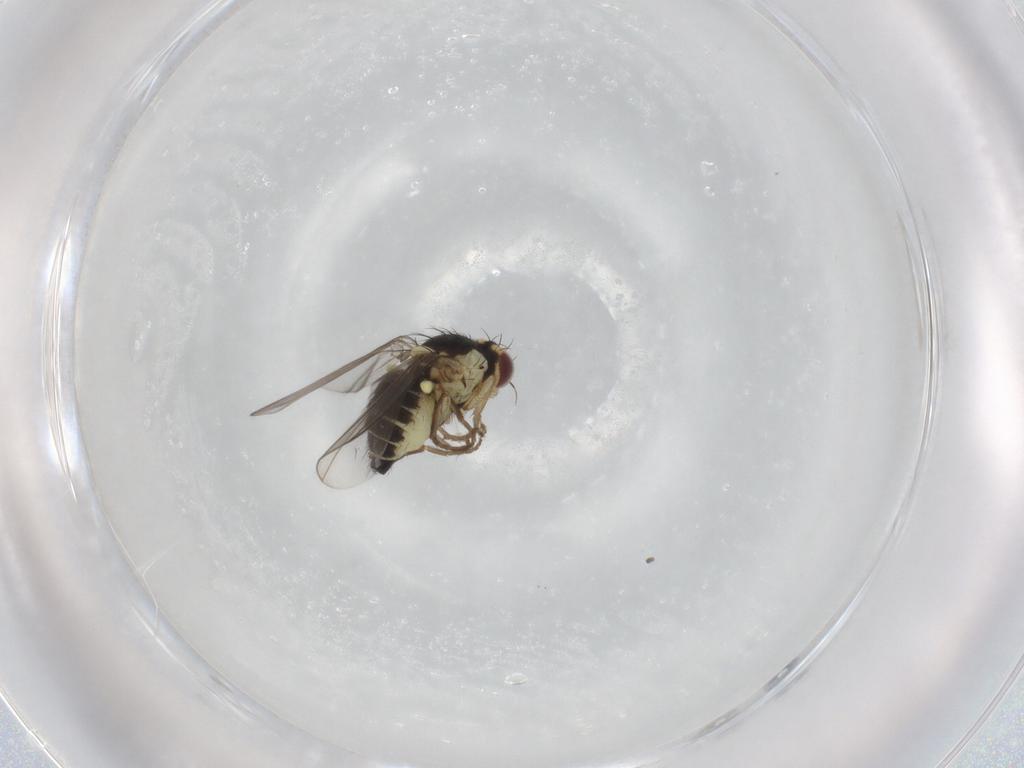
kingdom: Animalia
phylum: Arthropoda
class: Insecta
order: Diptera
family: Agromyzidae
